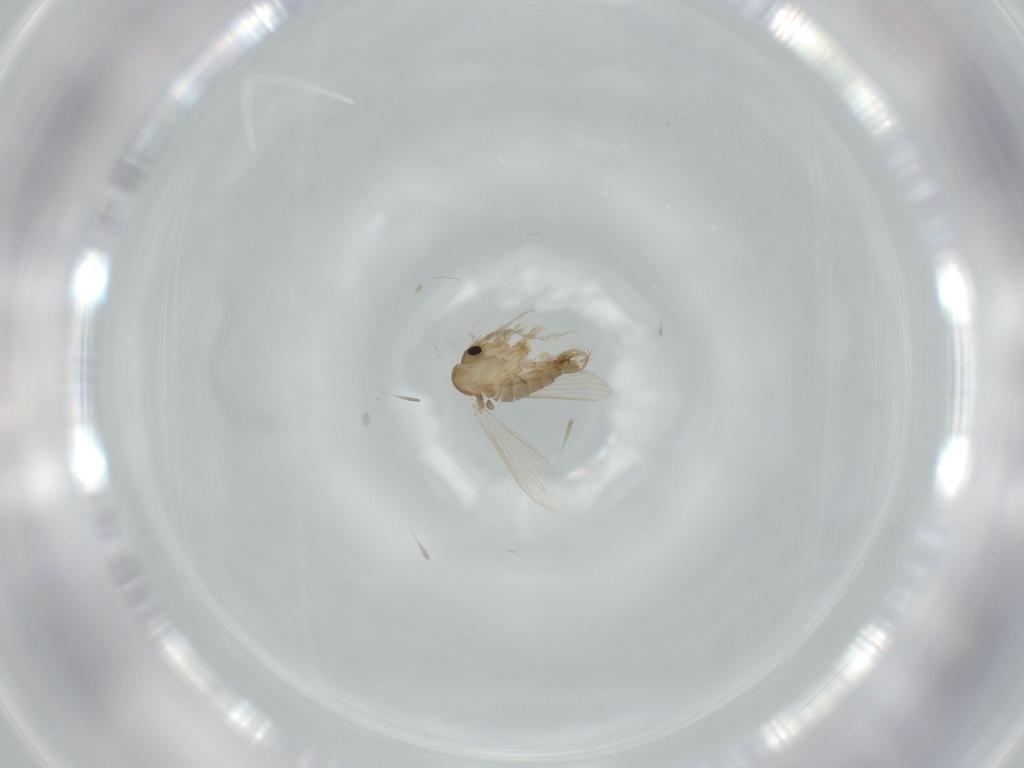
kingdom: Animalia
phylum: Arthropoda
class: Insecta
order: Diptera
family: Psychodidae
